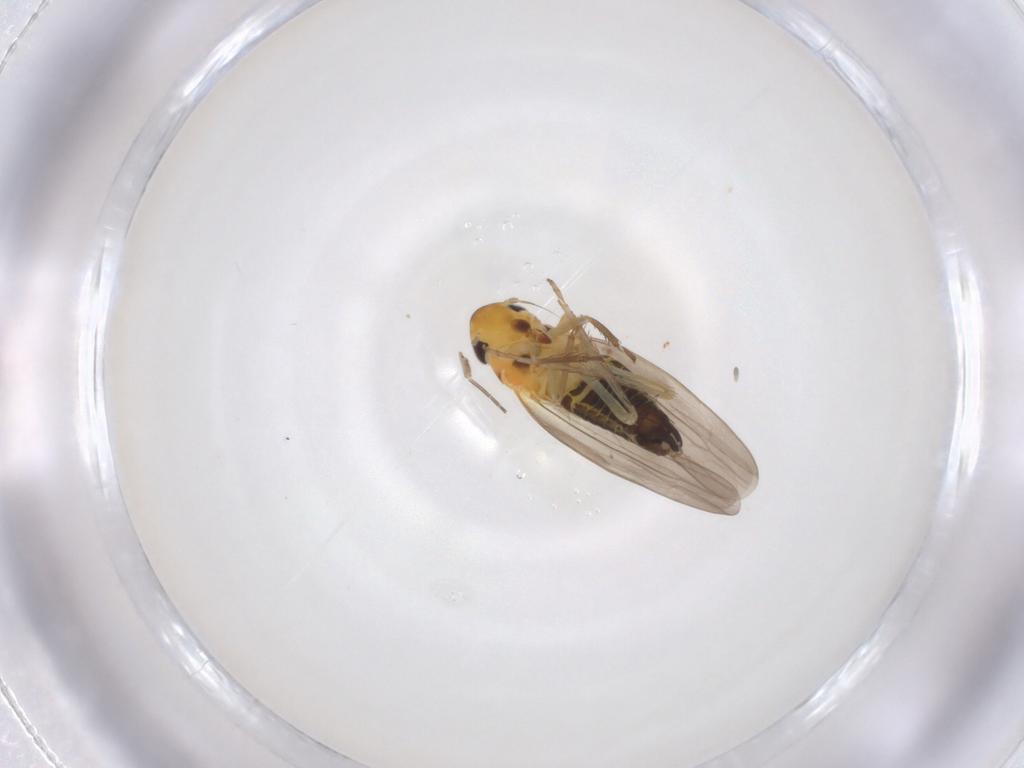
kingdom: Animalia
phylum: Arthropoda
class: Insecta
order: Hemiptera
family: Cicadellidae
